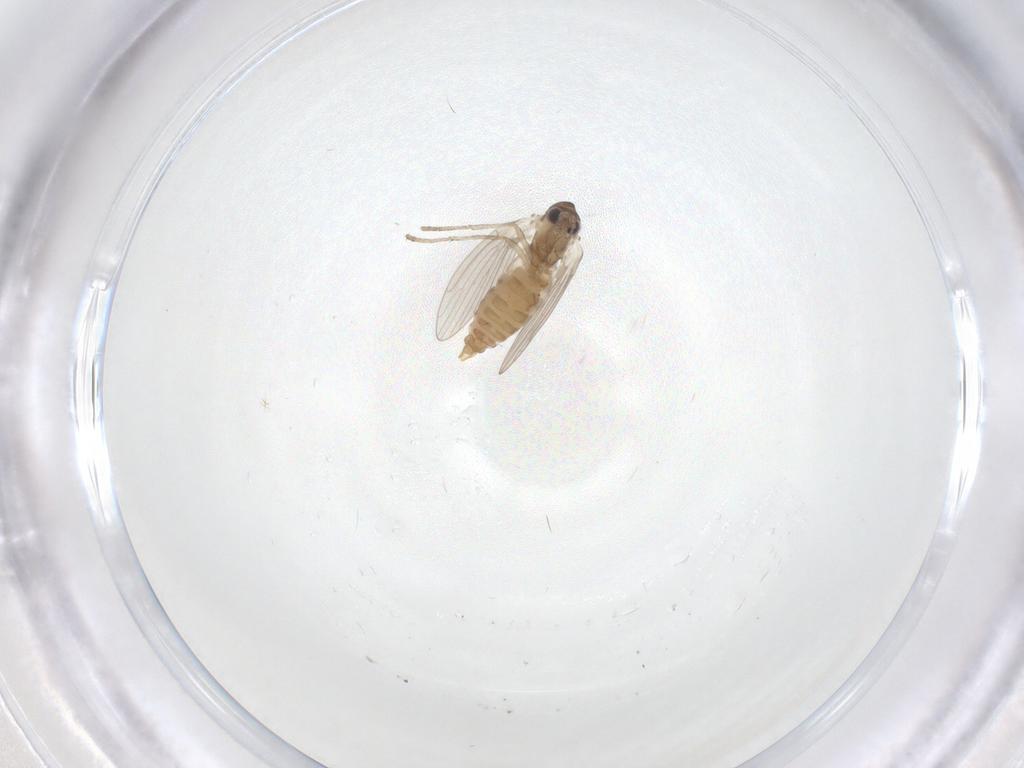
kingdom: Animalia
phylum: Arthropoda
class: Insecta
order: Diptera
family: Psychodidae
